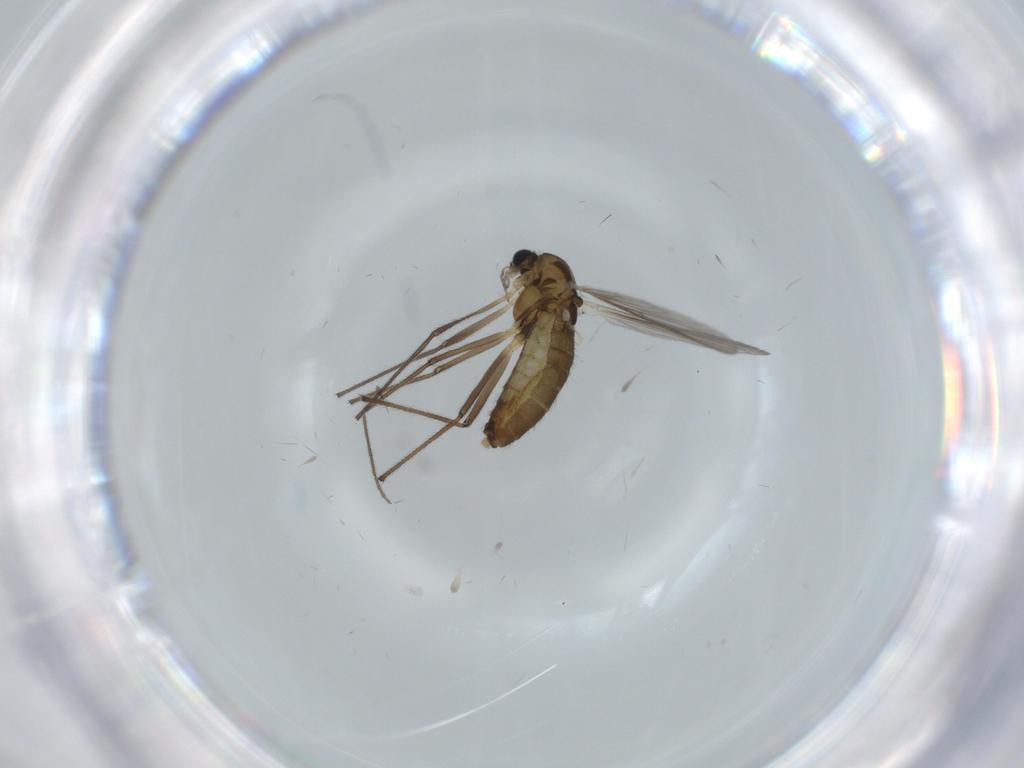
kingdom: Animalia
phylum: Arthropoda
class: Insecta
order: Diptera
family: Chironomidae
